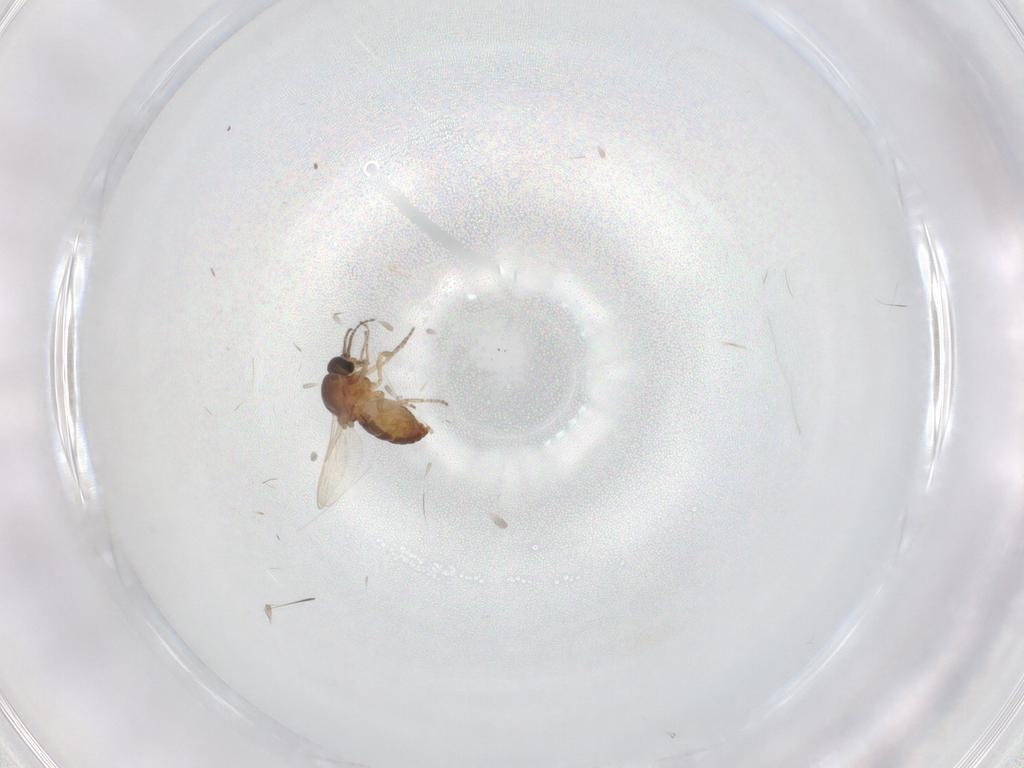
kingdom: Animalia
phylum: Arthropoda
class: Insecta
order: Diptera
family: Ceratopogonidae
